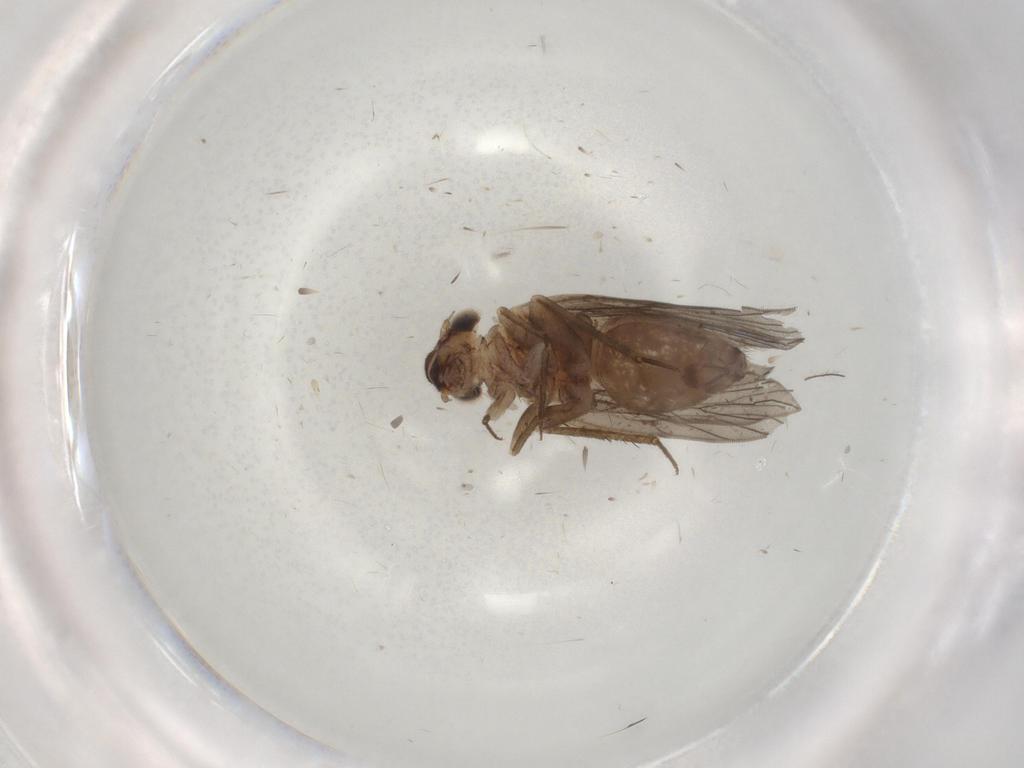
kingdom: Animalia
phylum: Arthropoda
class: Insecta
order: Psocodea
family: Lepidopsocidae
